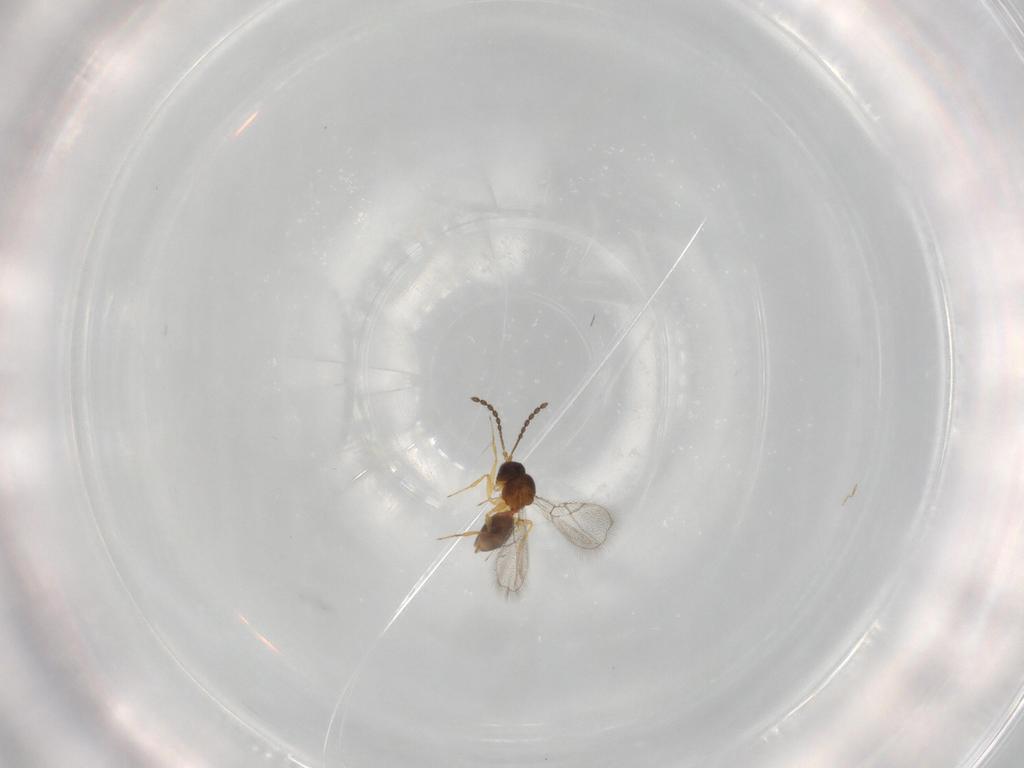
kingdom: Animalia
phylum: Arthropoda
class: Insecta
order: Hymenoptera
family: Figitidae
